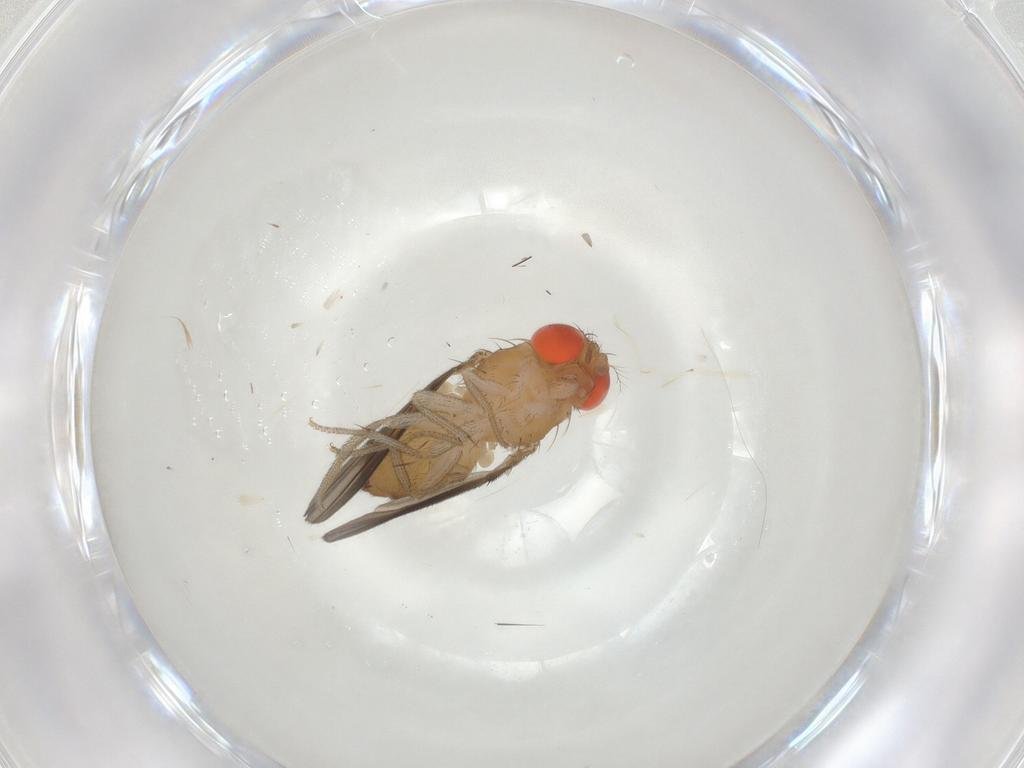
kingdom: Animalia
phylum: Arthropoda
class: Insecta
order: Diptera
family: Drosophilidae
